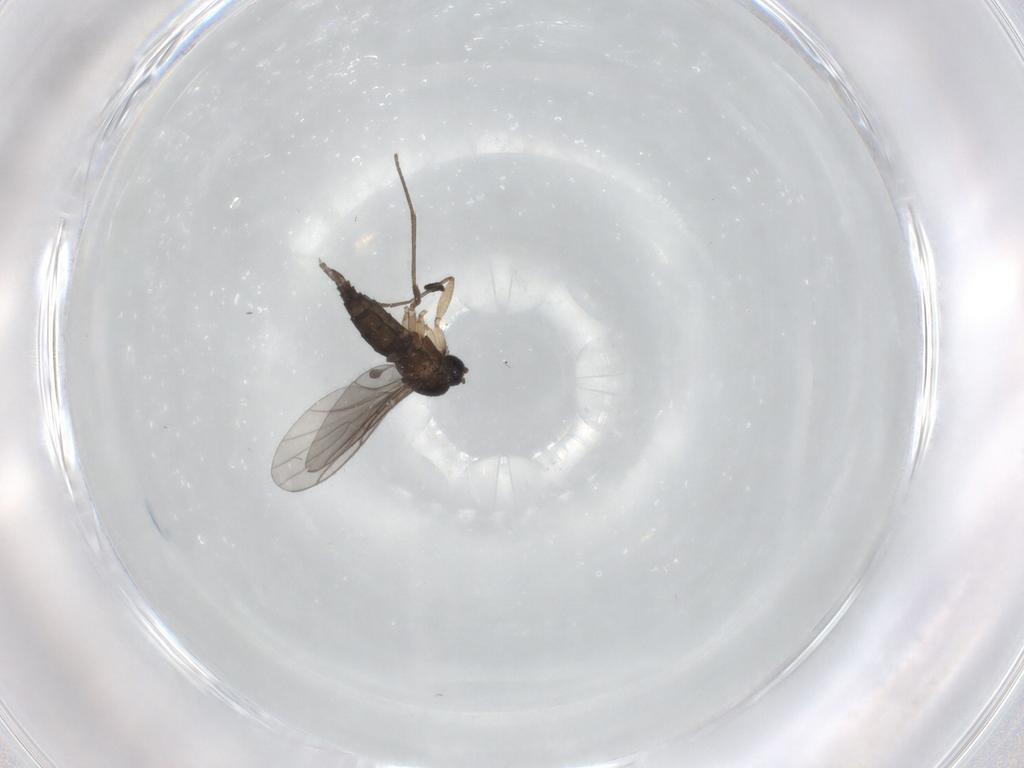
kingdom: Animalia
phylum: Arthropoda
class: Insecta
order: Diptera
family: Sciaridae
